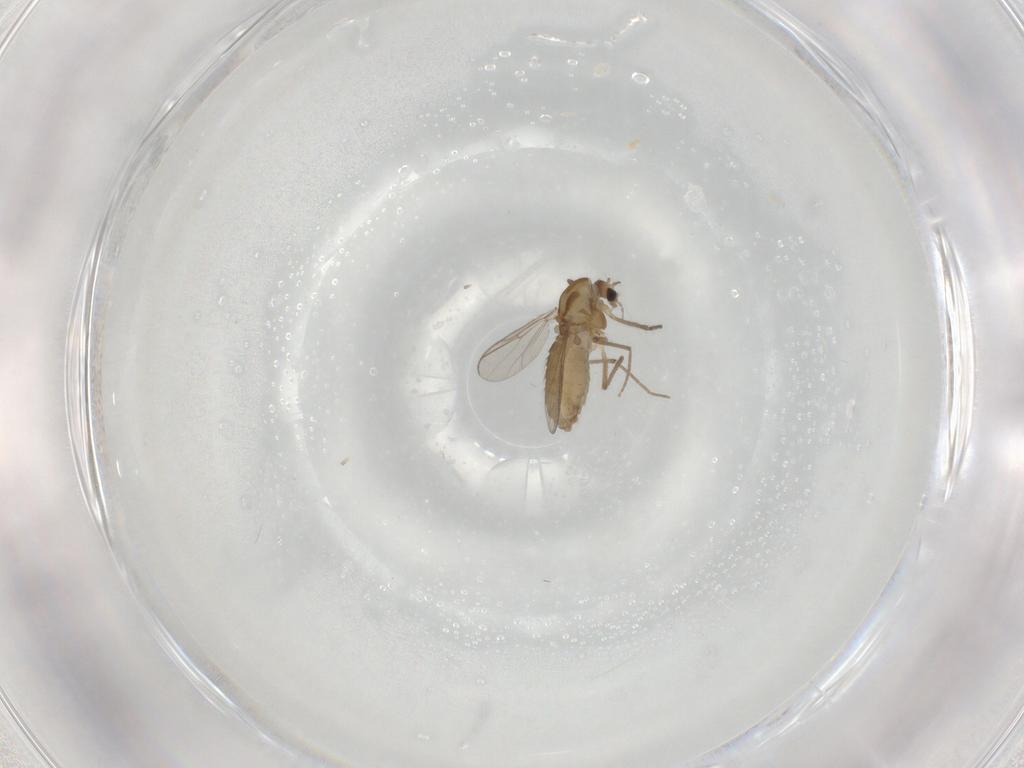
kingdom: Animalia
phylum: Arthropoda
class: Insecta
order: Diptera
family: Chironomidae
